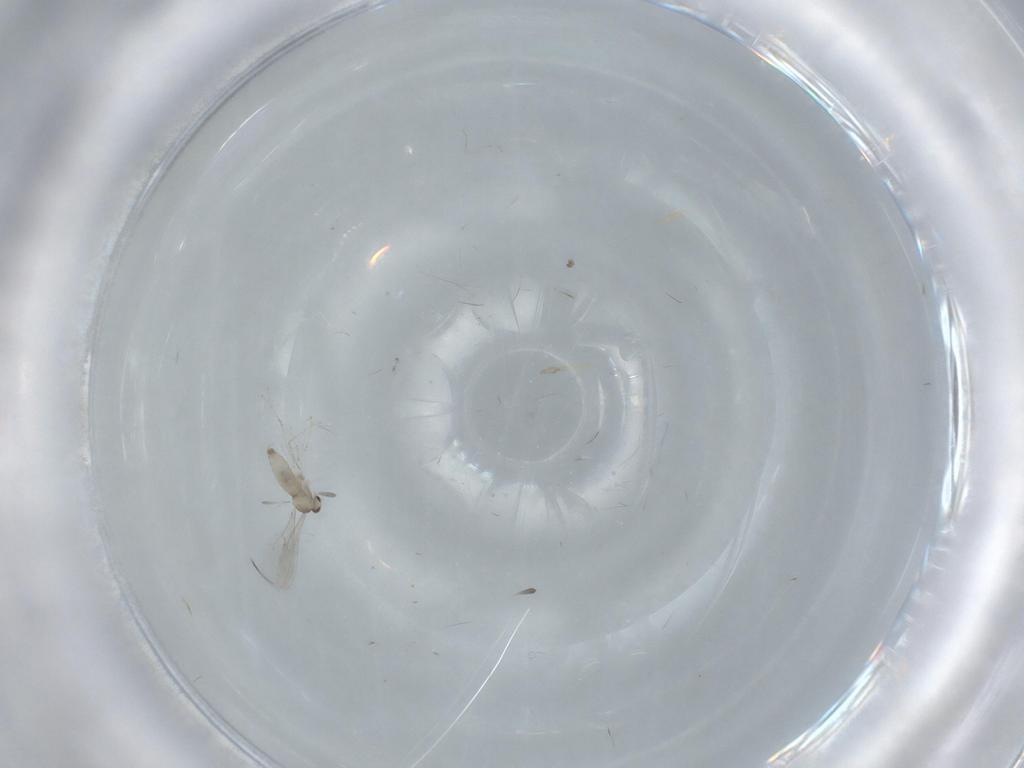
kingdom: Animalia
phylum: Arthropoda
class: Insecta
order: Diptera
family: Cecidomyiidae
